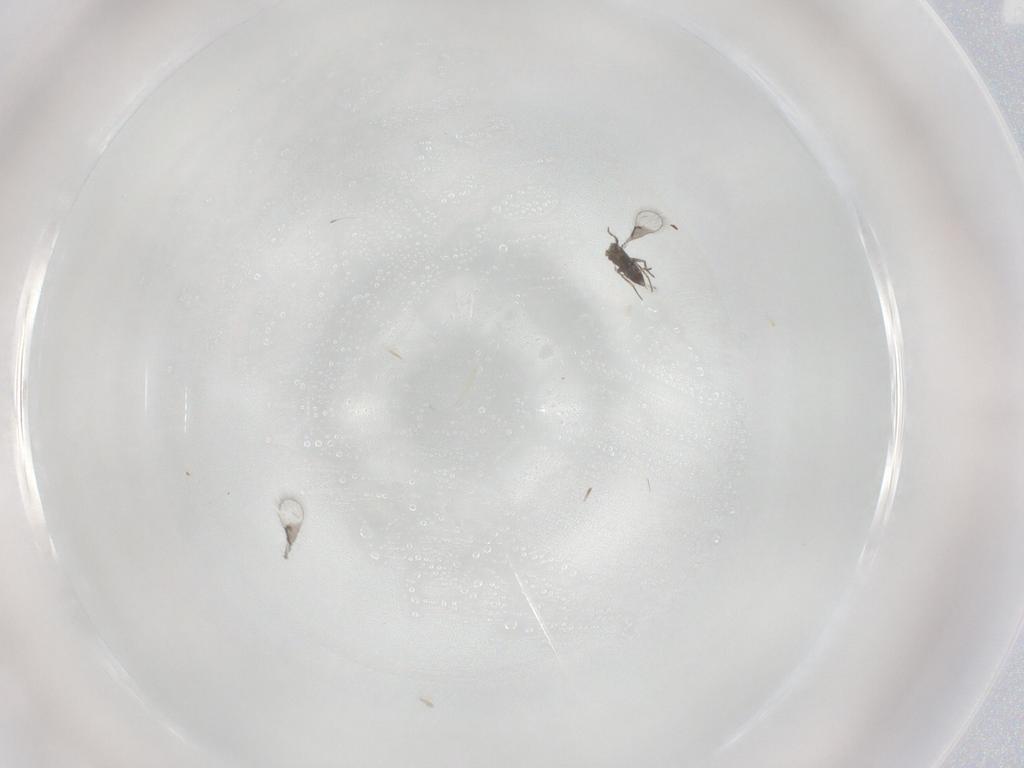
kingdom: Animalia
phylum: Arthropoda
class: Insecta
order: Hymenoptera
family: Trichogrammatidae
